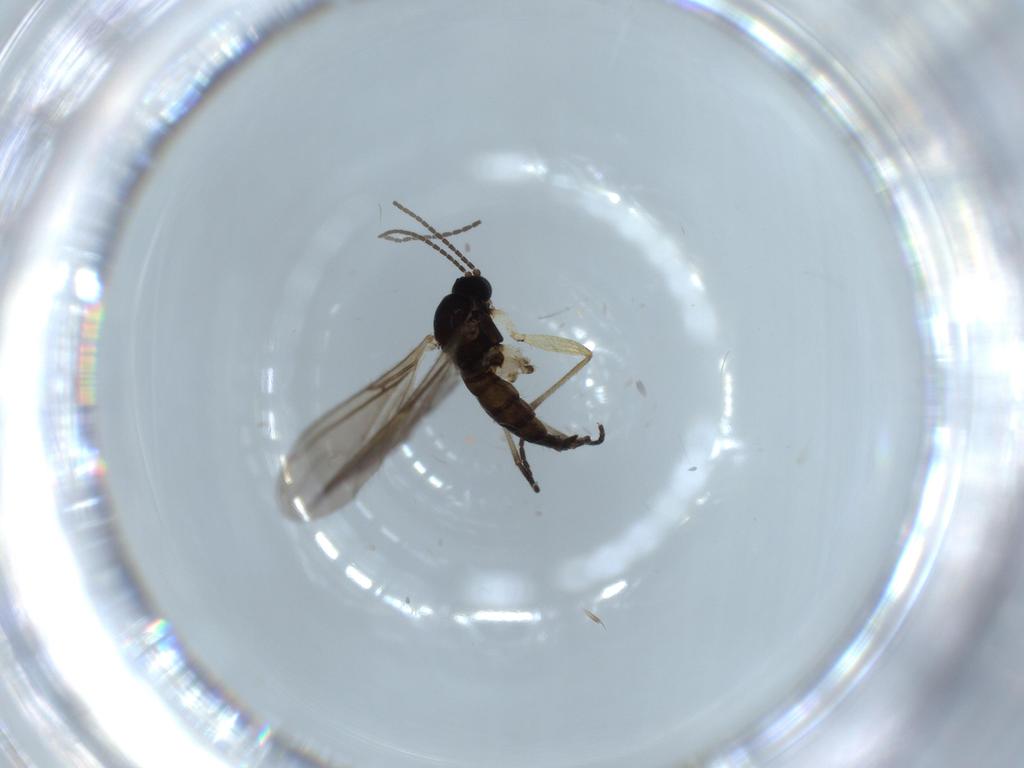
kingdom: Animalia
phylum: Arthropoda
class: Insecta
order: Diptera
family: Sciaridae
